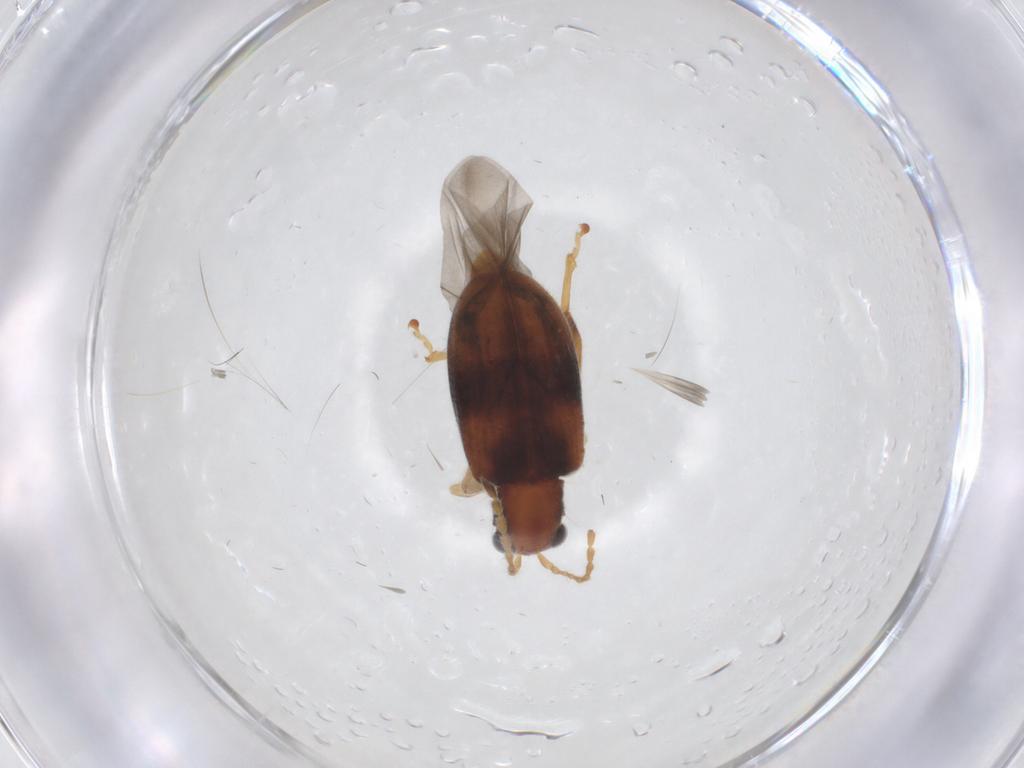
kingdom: Animalia
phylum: Arthropoda
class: Insecta
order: Coleoptera
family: Chrysomelidae
